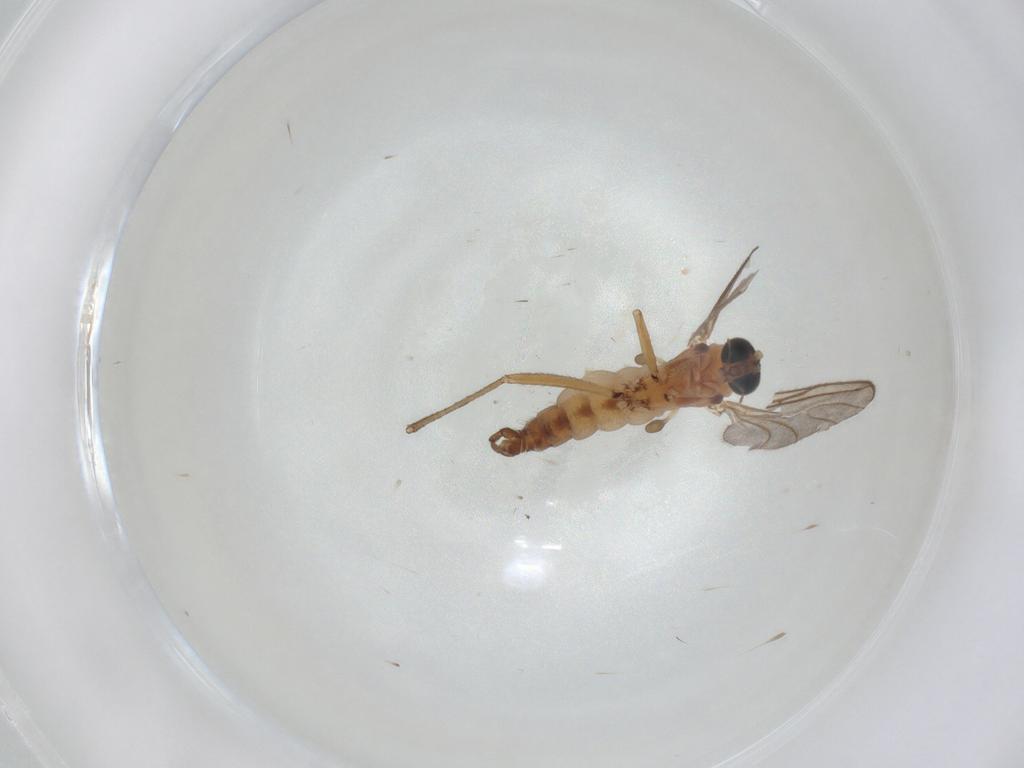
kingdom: Animalia
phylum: Arthropoda
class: Insecta
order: Diptera
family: Sciaridae
